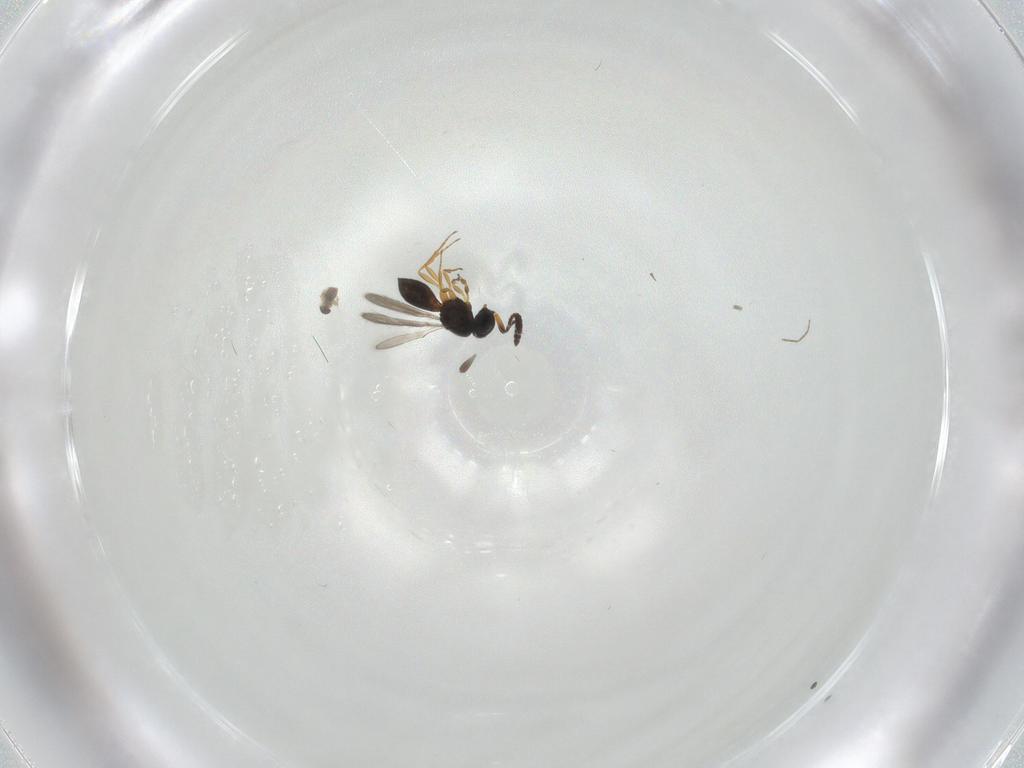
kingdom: Animalia
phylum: Arthropoda
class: Insecta
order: Hymenoptera
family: Scelionidae
